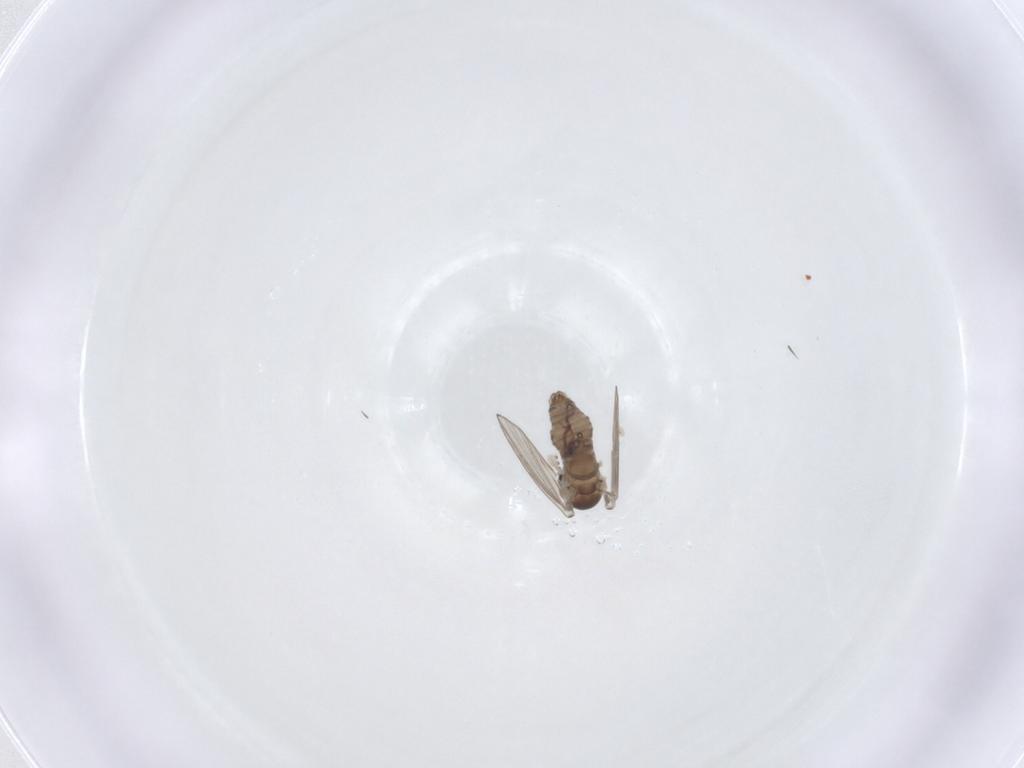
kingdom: Animalia
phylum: Arthropoda
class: Insecta
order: Diptera
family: Psychodidae
